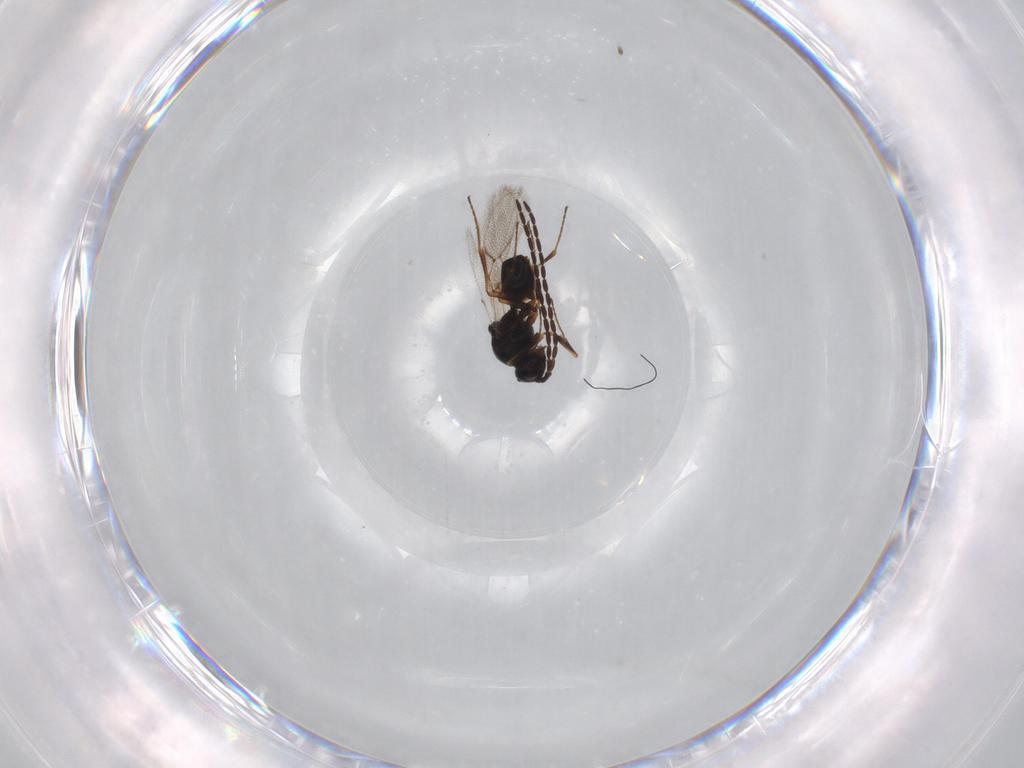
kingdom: Animalia
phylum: Arthropoda
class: Insecta
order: Hymenoptera
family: Figitidae
